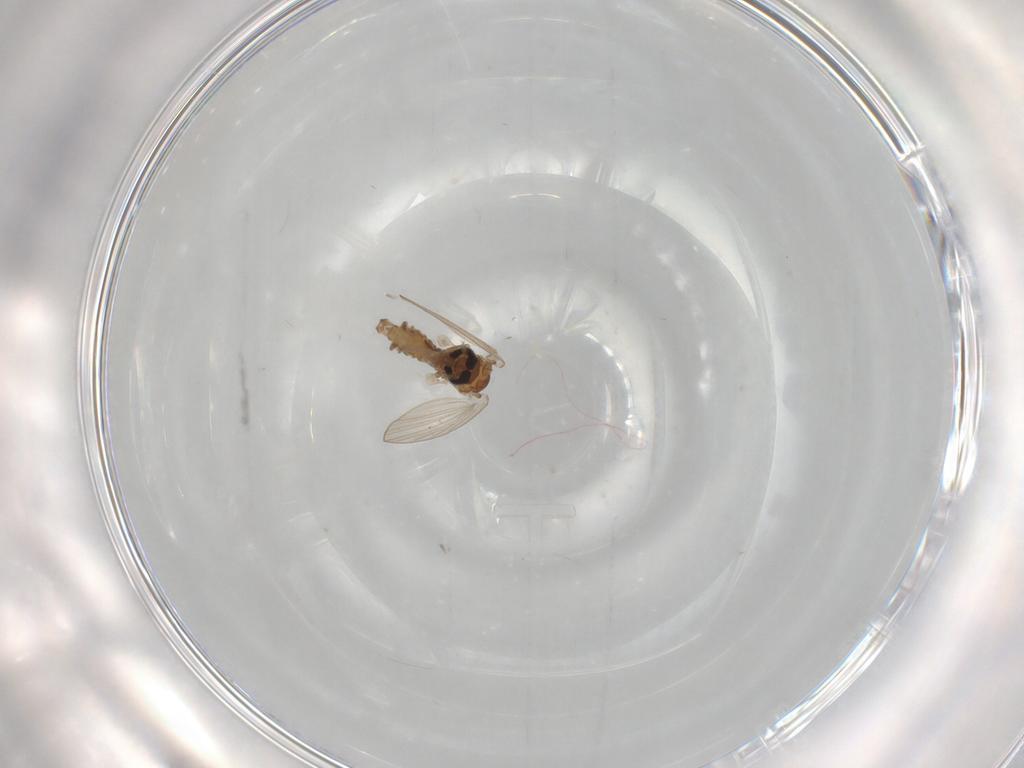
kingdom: Animalia
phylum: Arthropoda
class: Insecta
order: Diptera
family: Psychodidae
